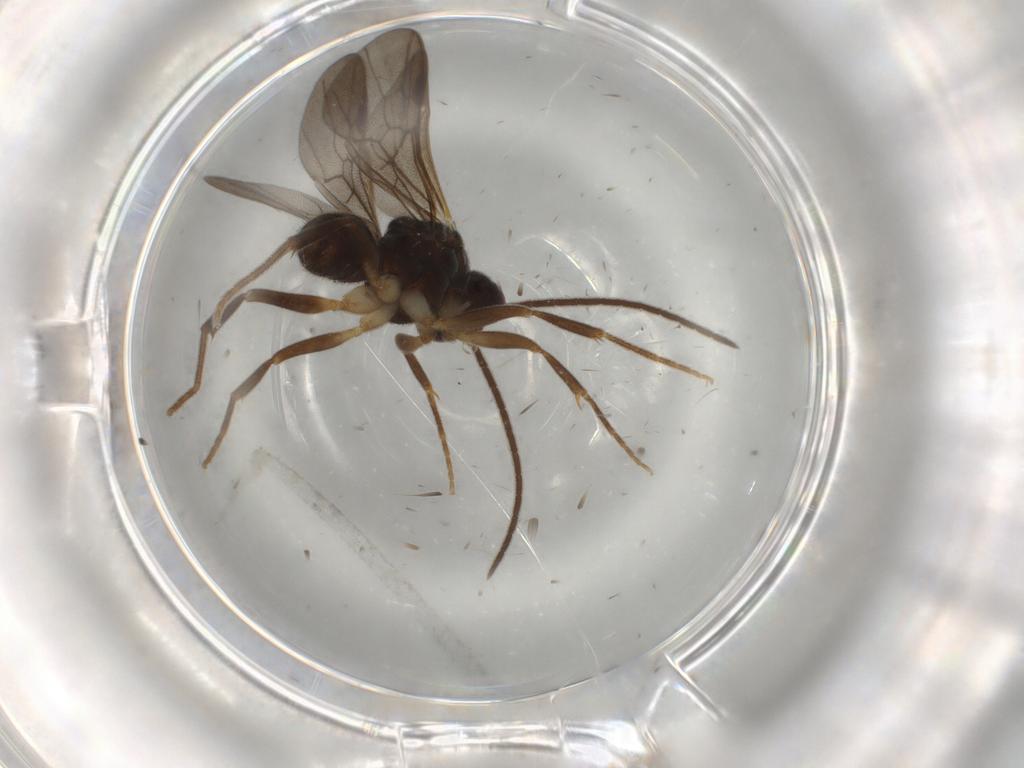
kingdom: Animalia
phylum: Arthropoda
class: Insecta
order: Hymenoptera
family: Formicidae
